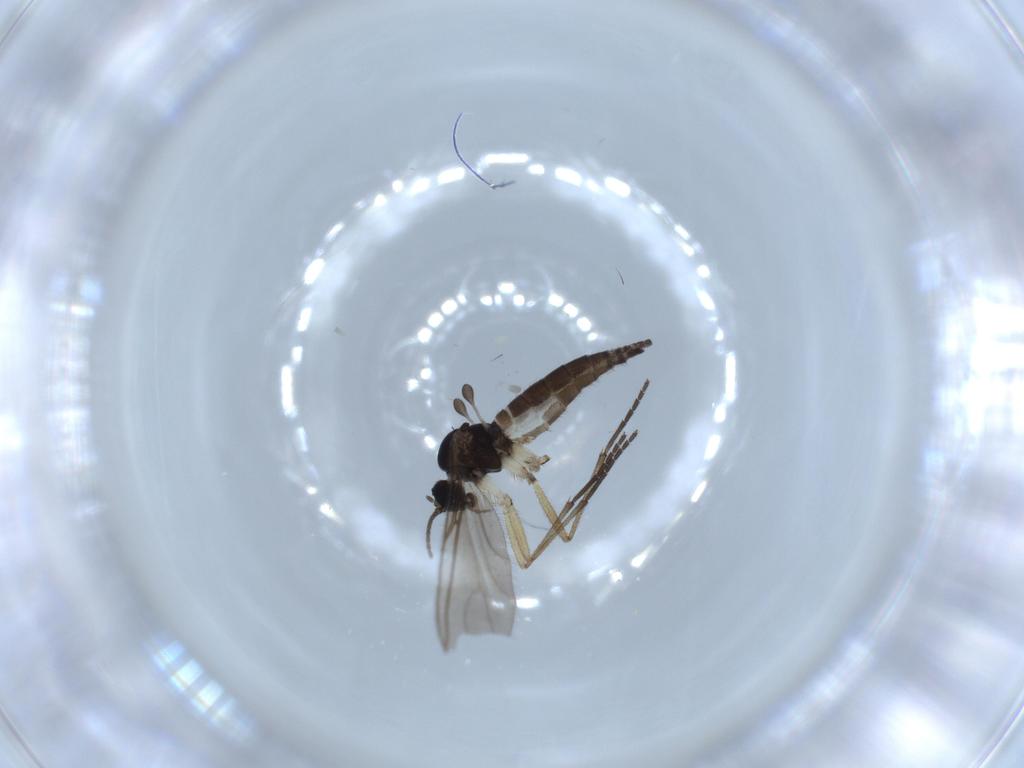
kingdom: Animalia
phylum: Arthropoda
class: Insecta
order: Diptera
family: Sciaridae
